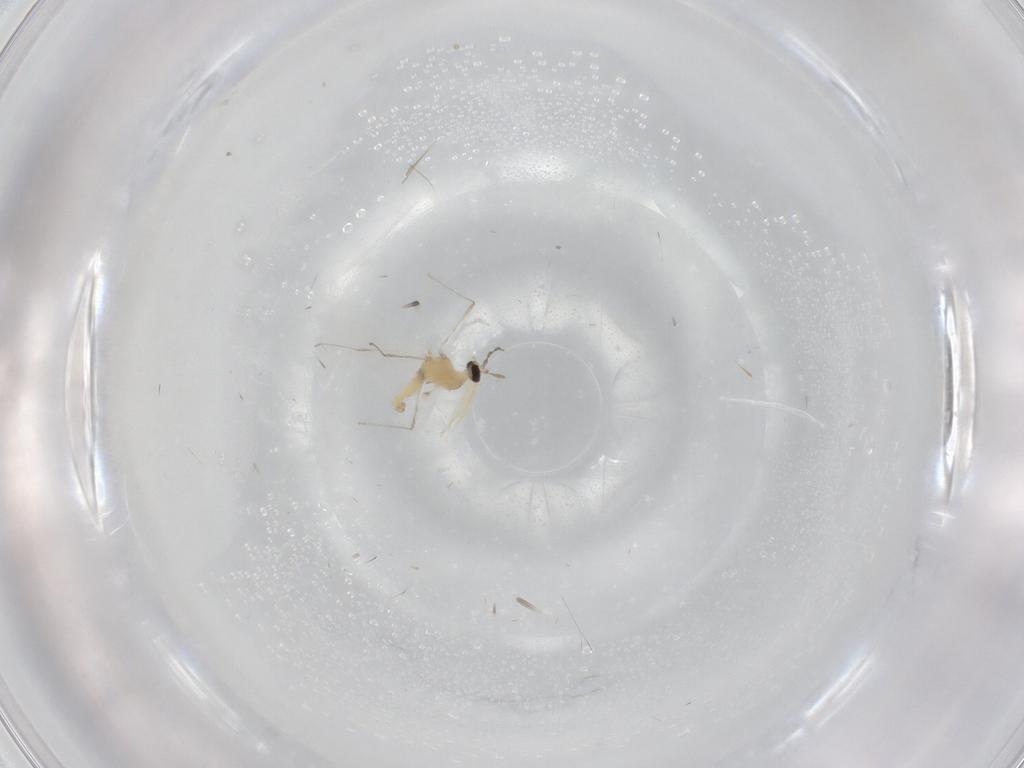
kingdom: Animalia
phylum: Arthropoda
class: Insecta
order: Diptera
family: Cecidomyiidae
